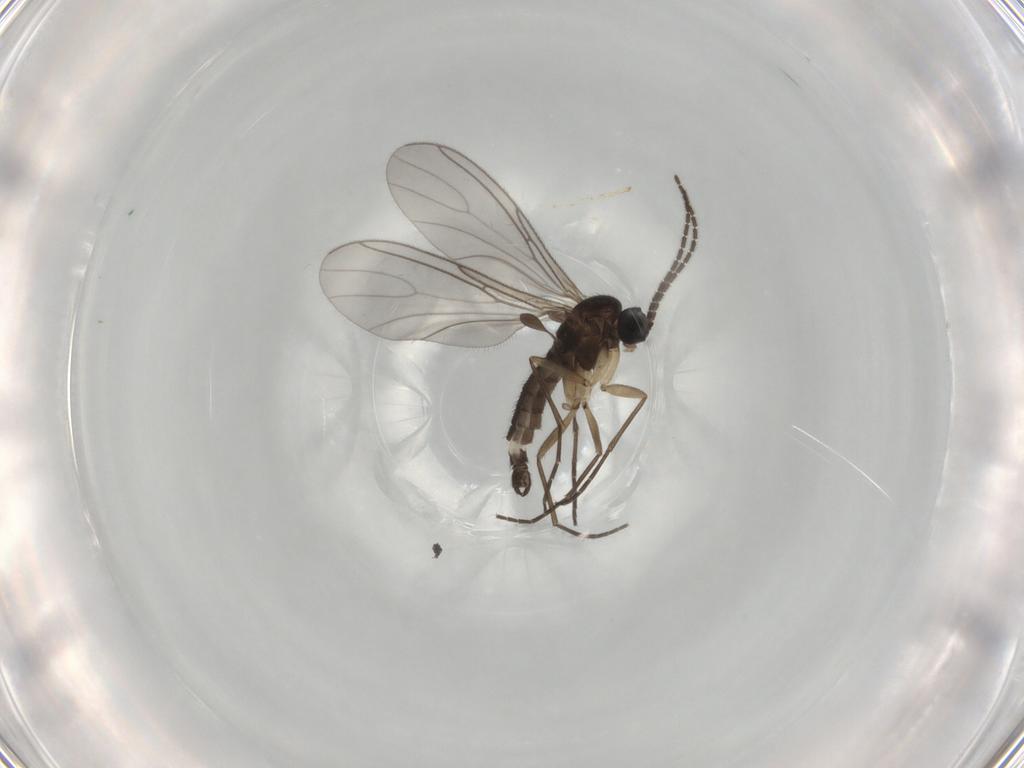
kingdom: Animalia
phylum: Arthropoda
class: Insecta
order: Diptera
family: Sciaridae
